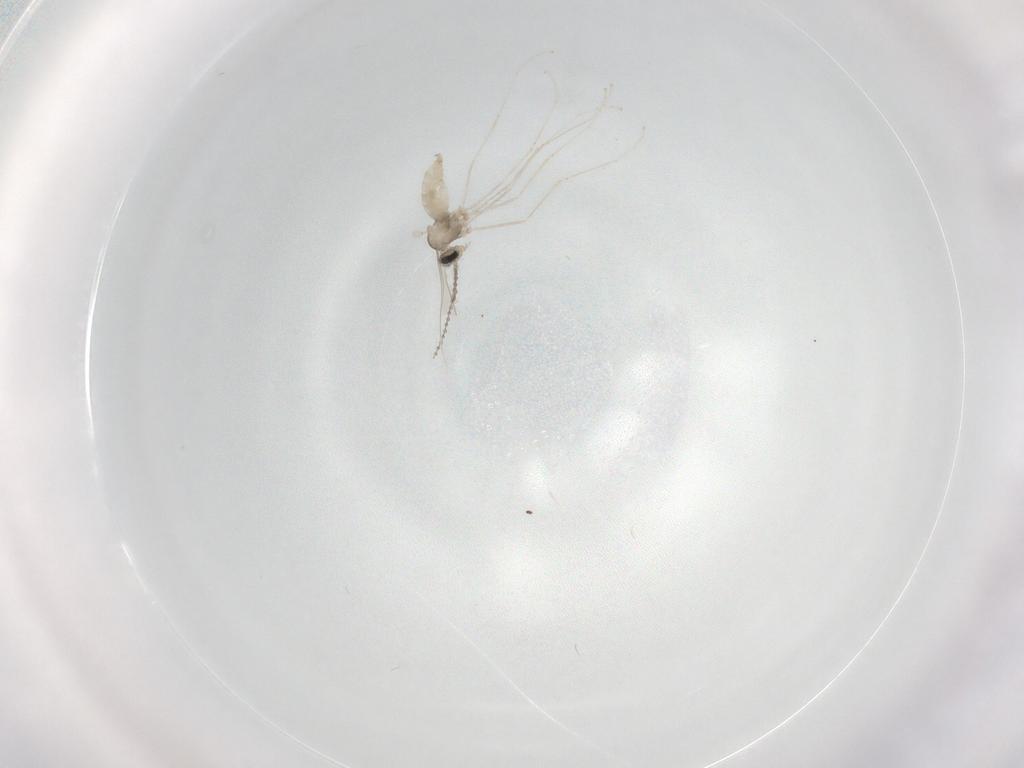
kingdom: Animalia
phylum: Arthropoda
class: Insecta
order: Diptera
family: Cecidomyiidae
